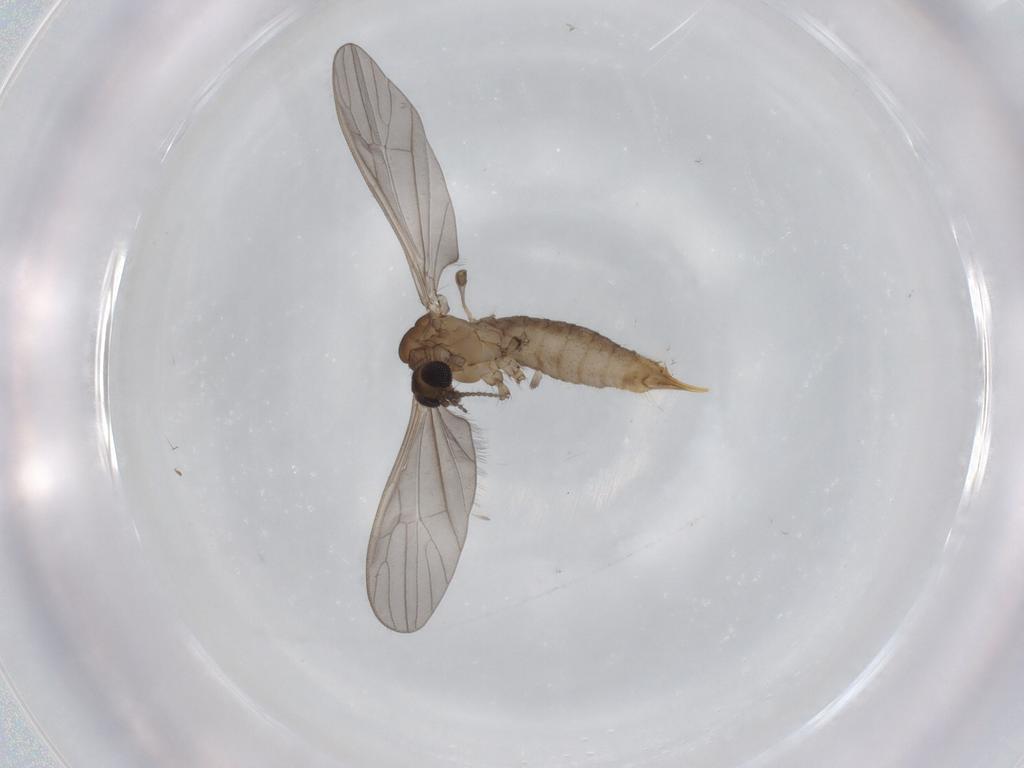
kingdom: Animalia
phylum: Arthropoda
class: Insecta
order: Diptera
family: Limoniidae
